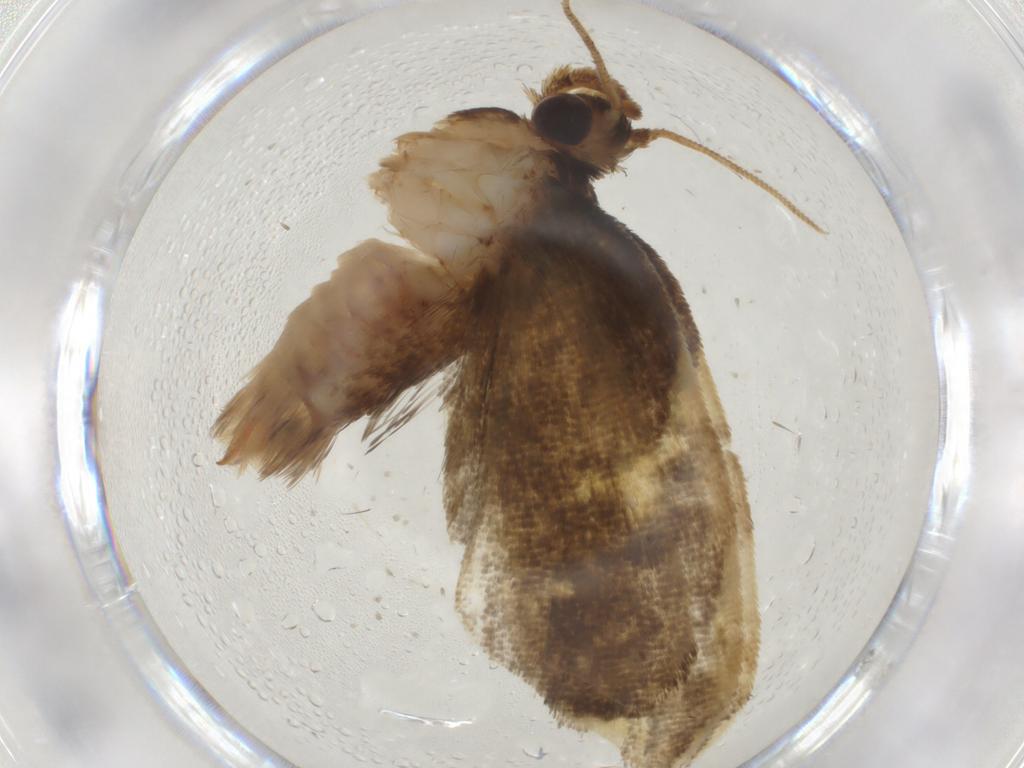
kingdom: Animalia
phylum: Arthropoda
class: Insecta
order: Lepidoptera
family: Psychidae
